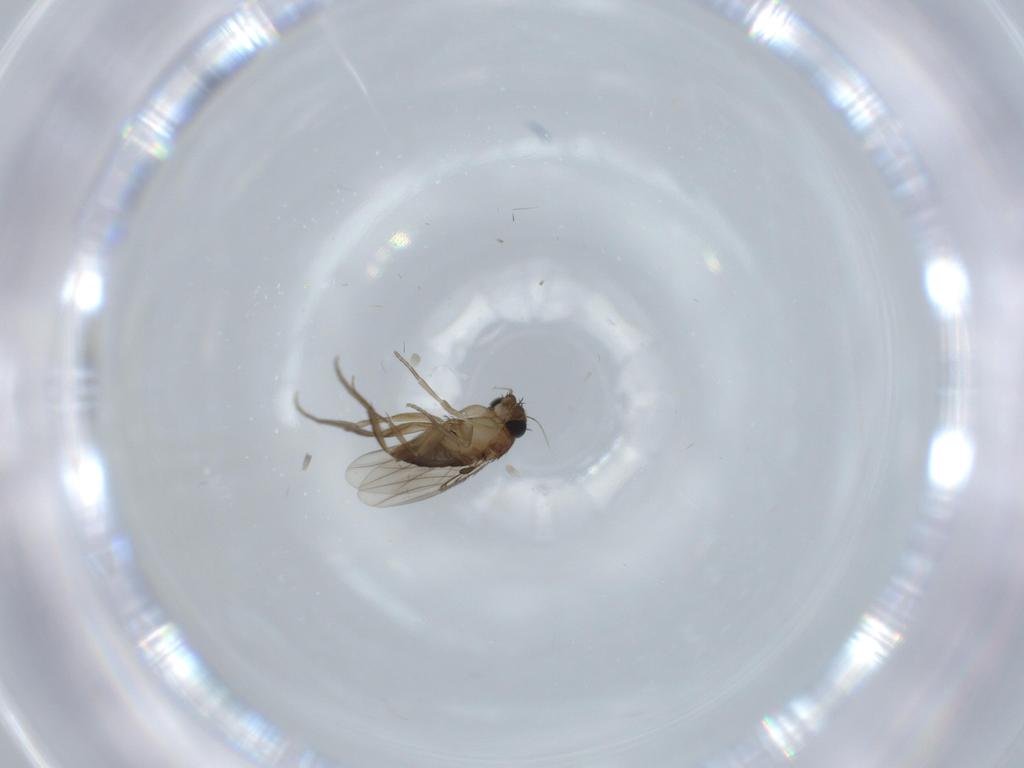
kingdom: Animalia
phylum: Arthropoda
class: Insecta
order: Diptera
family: Phoridae
